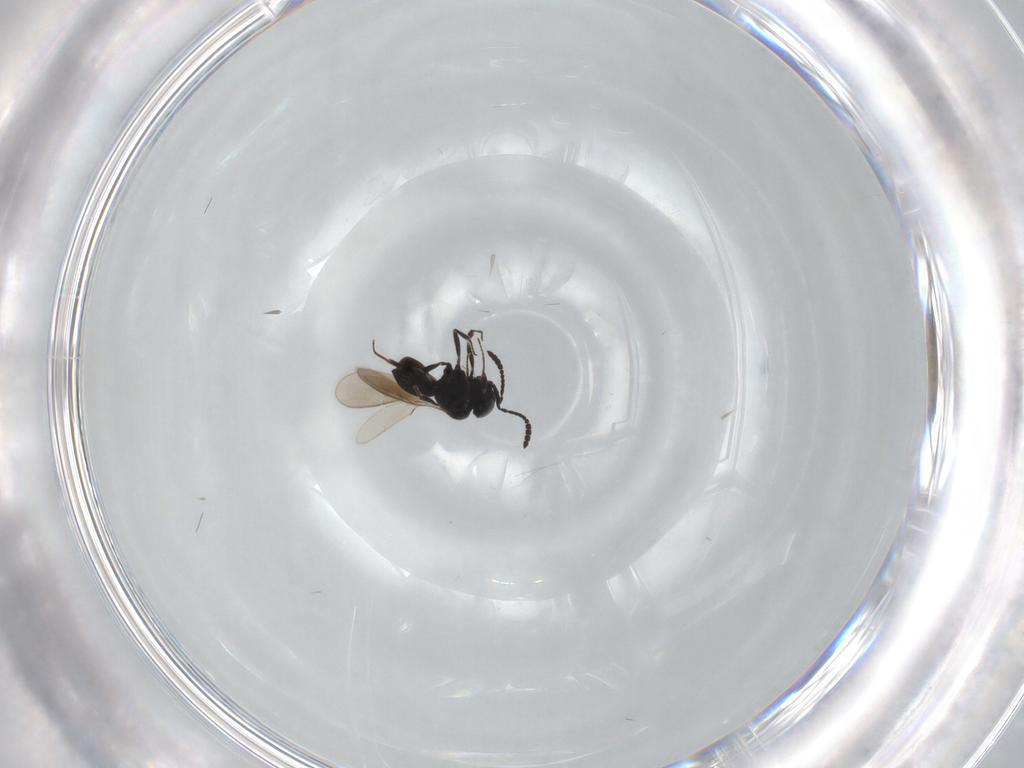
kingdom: Animalia
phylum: Arthropoda
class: Insecta
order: Hymenoptera
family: Scelionidae
